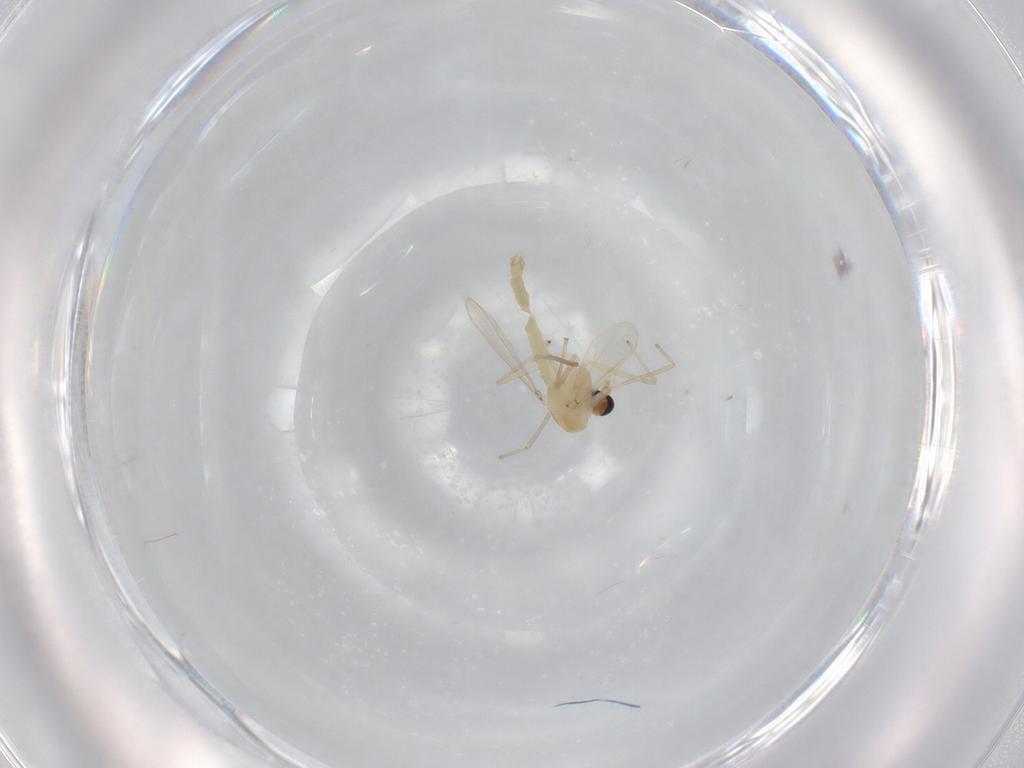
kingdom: Animalia
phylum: Arthropoda
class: Insecta
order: Diptera
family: Chironomidae
